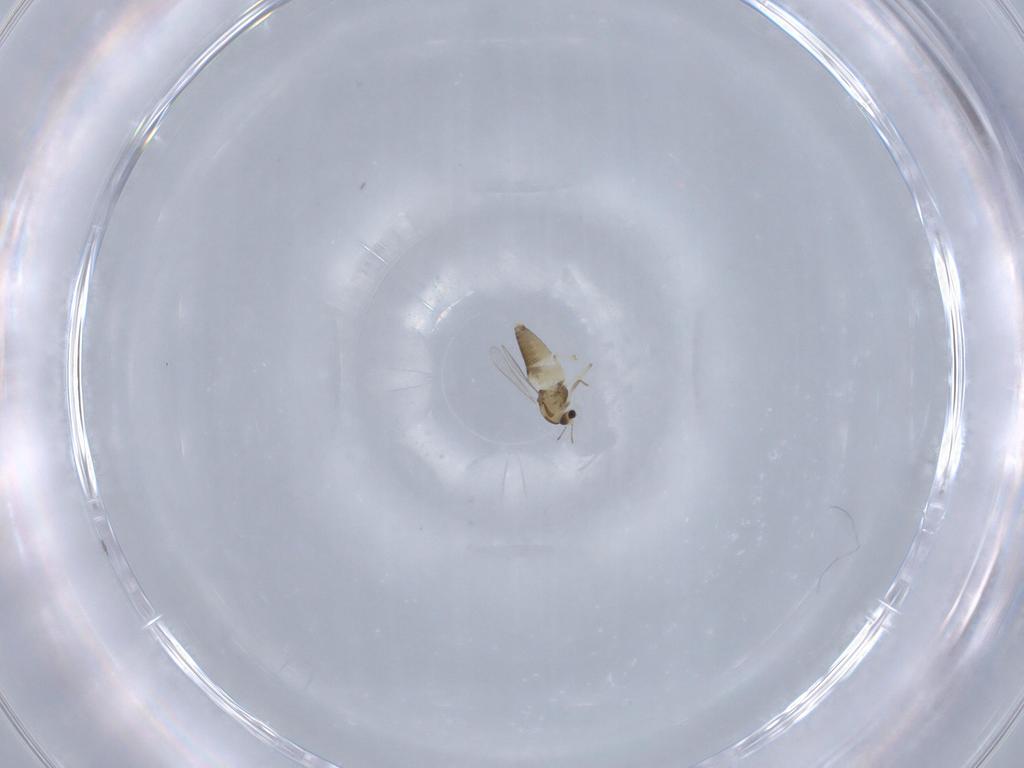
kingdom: Animalia
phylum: Arthropoda
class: Insecta
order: Diptera
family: Chironomidae
